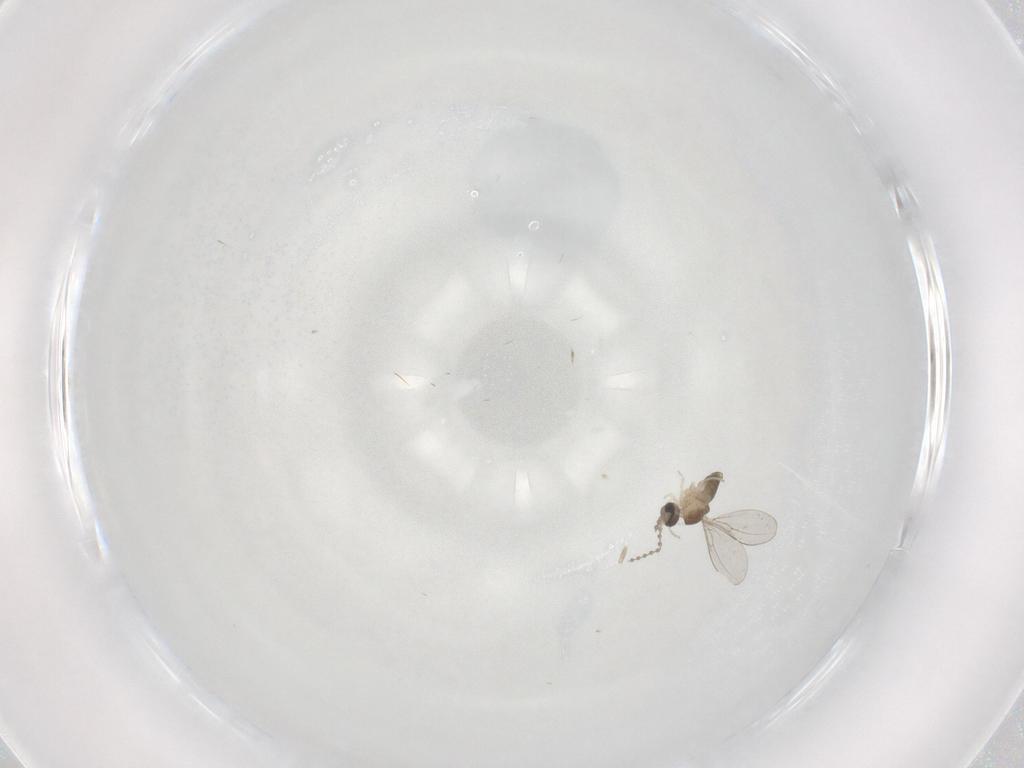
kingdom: Animalia
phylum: Arthropoda
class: Insecta
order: Diptera
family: Cecidomyiidae
